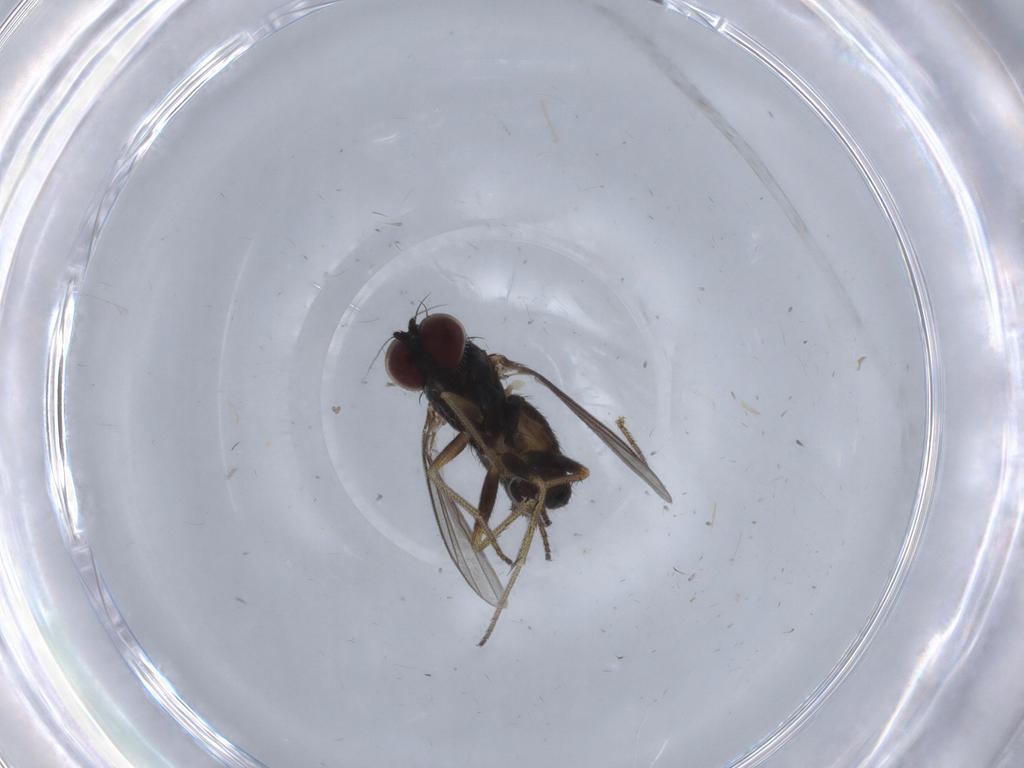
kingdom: Animalia
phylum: Arthropoda
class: Insecta
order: Diptera
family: Dolichopodidae
